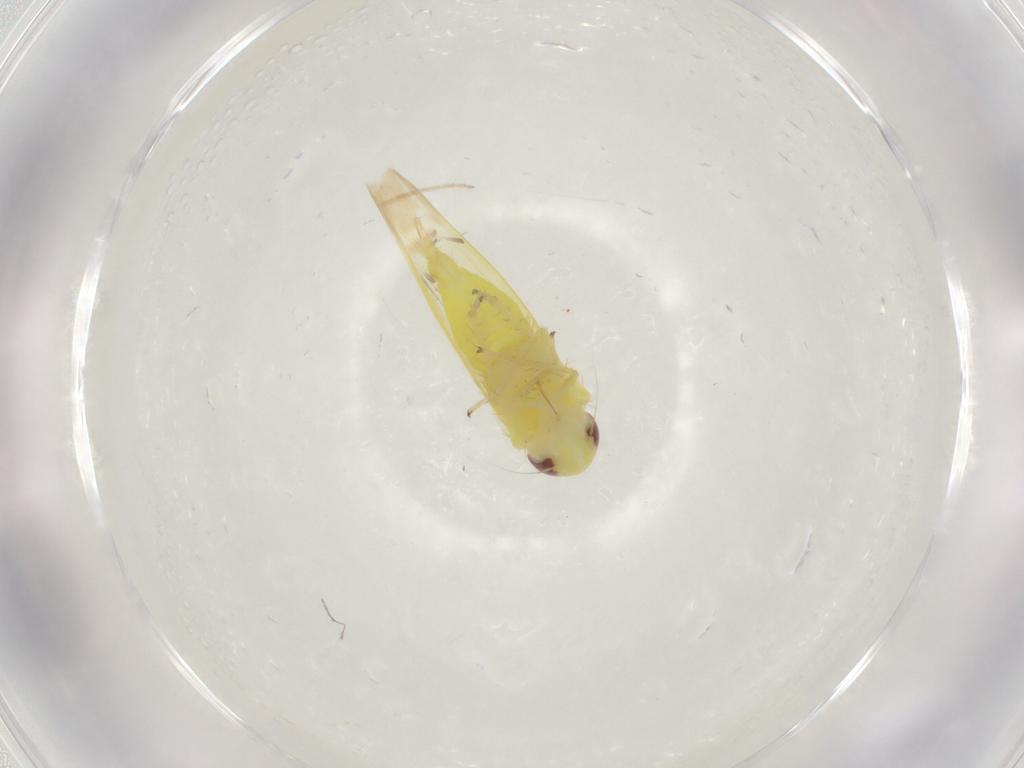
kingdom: Animalia
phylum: Arthropoda
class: Insecta
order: Hemiptera
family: Cicadellidae
